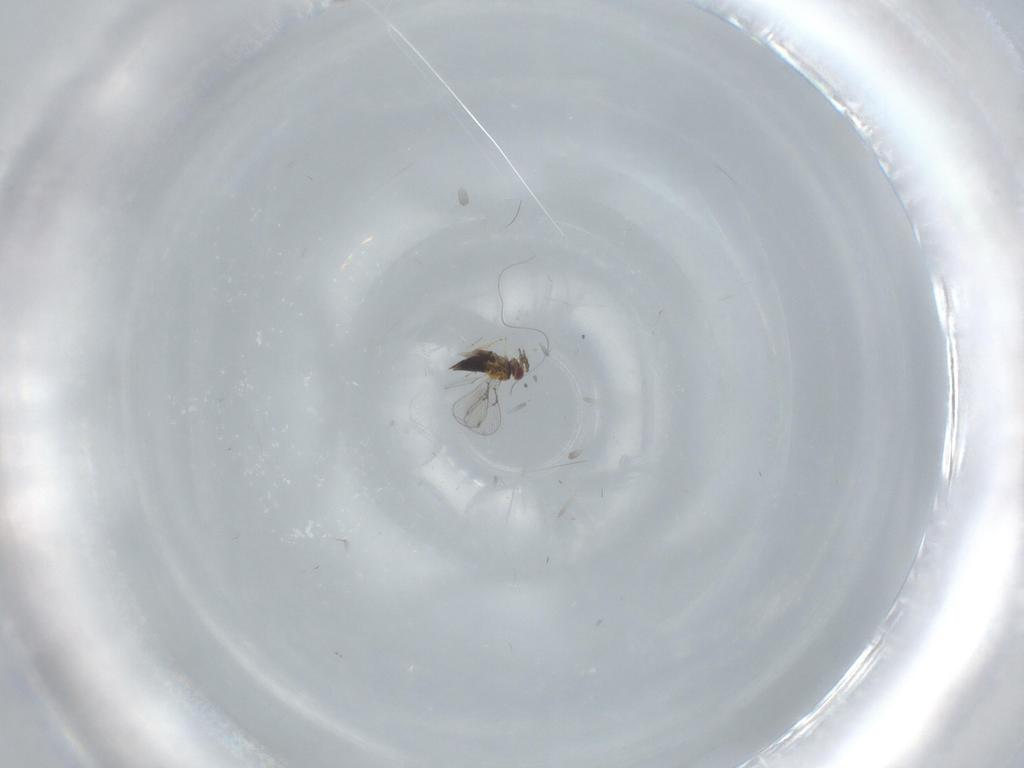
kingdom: Animalia
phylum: Arthropoda
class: Insecta
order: Hymenoptera
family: Trichogrammatidae
